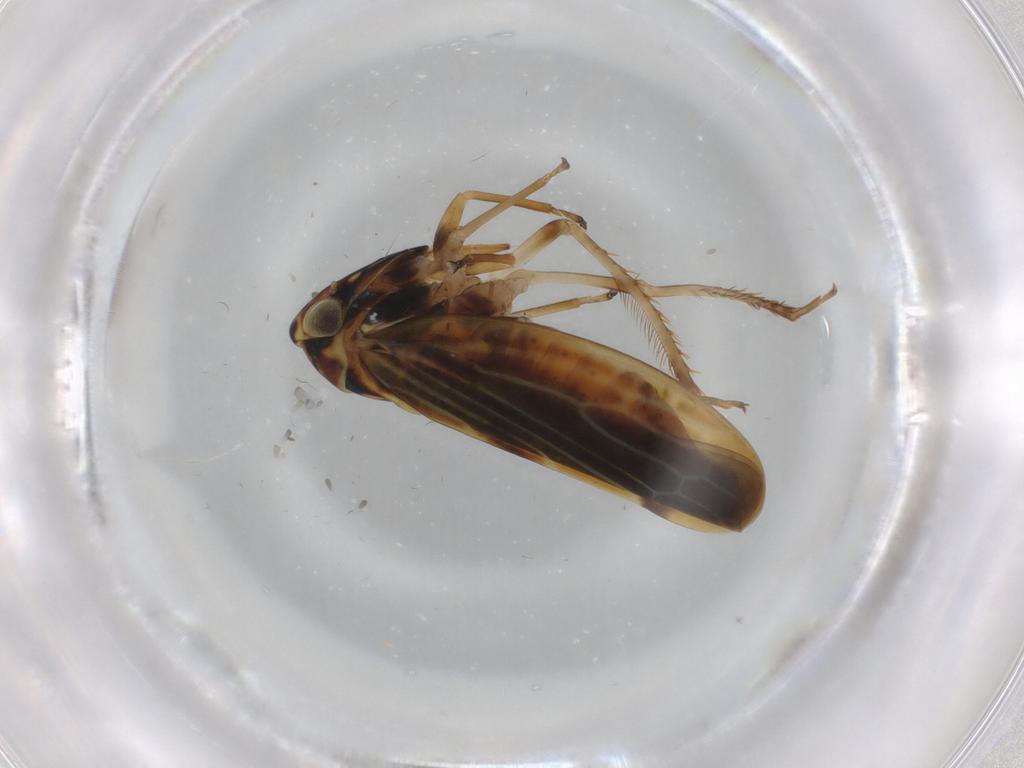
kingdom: Animalia
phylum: Arthropoda
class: Insecta
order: Hemiptera
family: Cicadellidae
